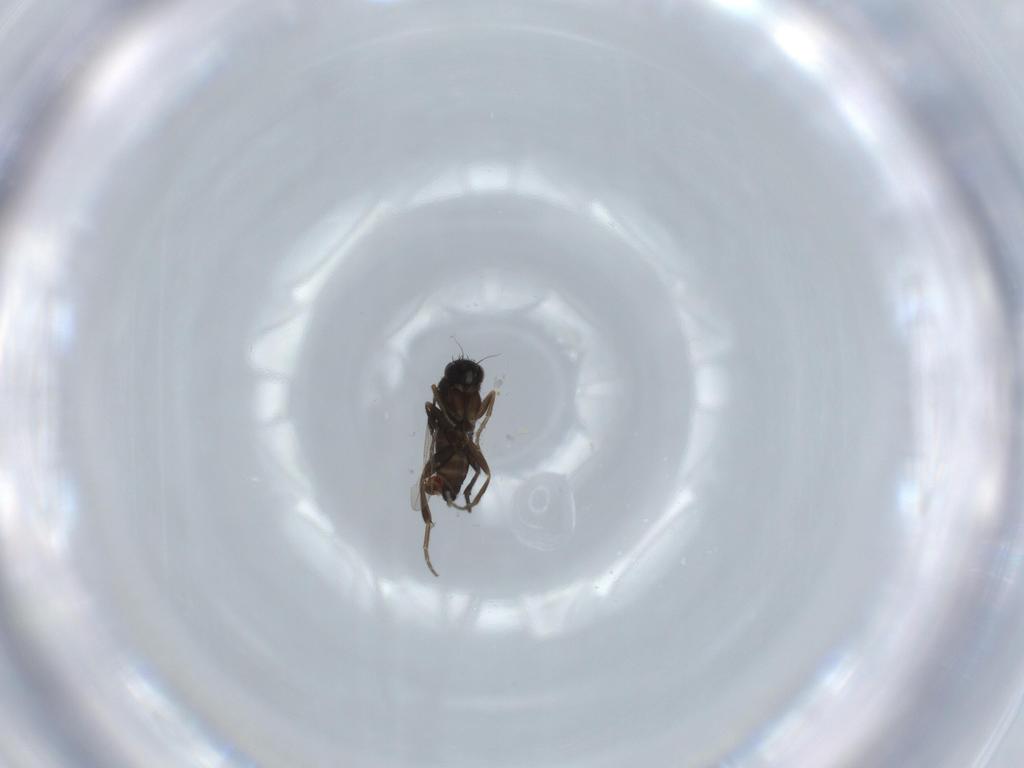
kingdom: Animalia
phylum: Arthropoda
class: Insecta
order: Diptera
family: Phoridae
